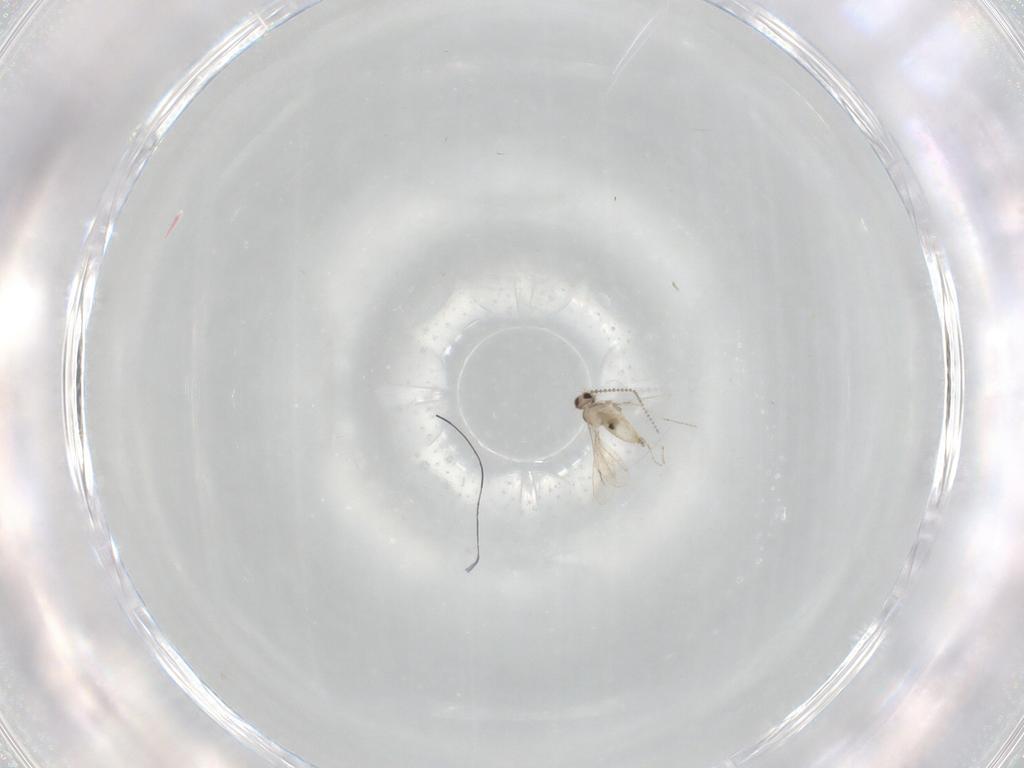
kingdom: Animalia
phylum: Arthropoda
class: Insecta
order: Diptera
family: Cecidomyiidae
